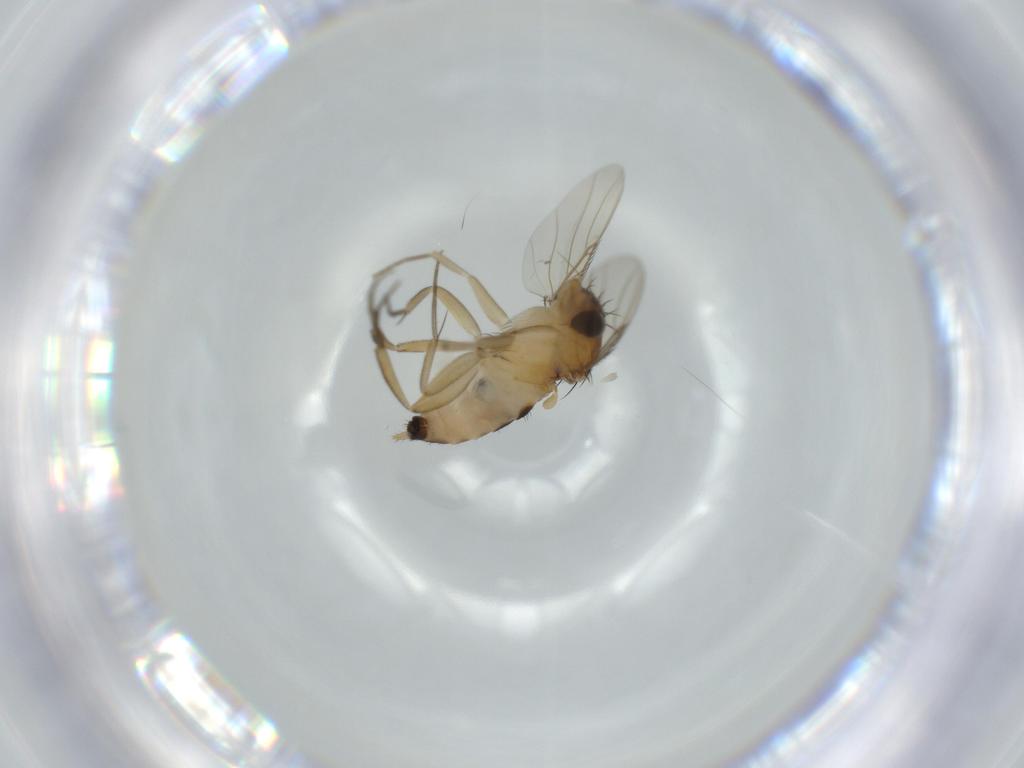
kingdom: Animalia
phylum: Arthropoda
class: Insecta
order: Diptera
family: Phoridae
